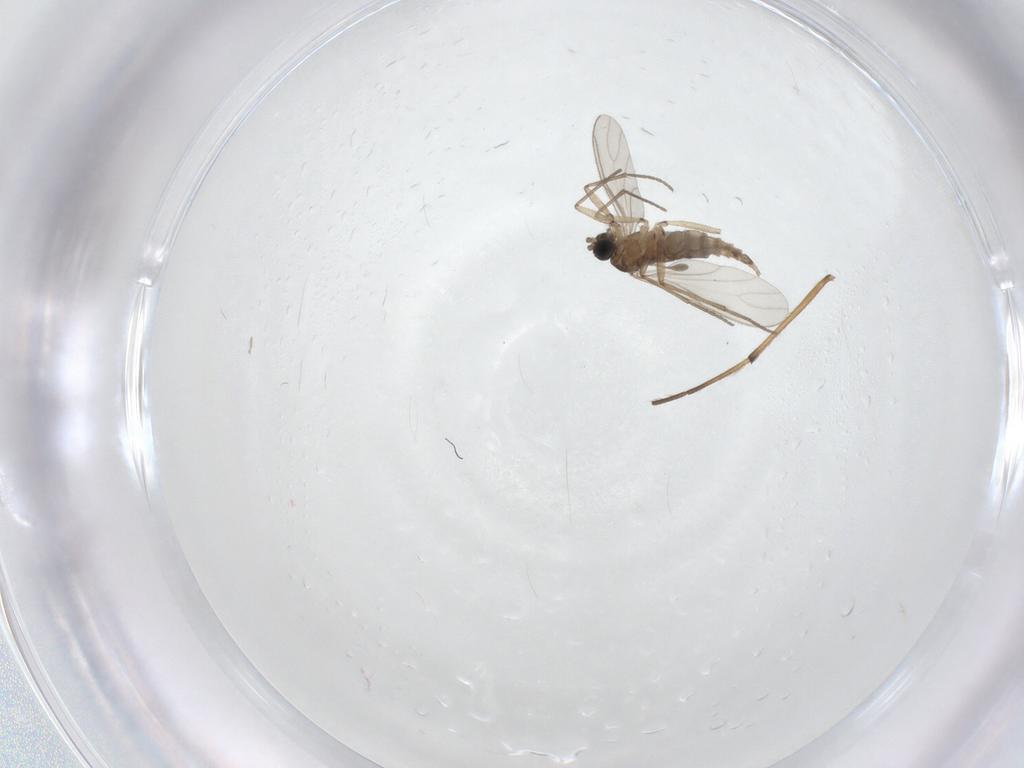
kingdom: Animalia
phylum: Arthropoda
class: Insecta
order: Diptera
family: Sciaridae
